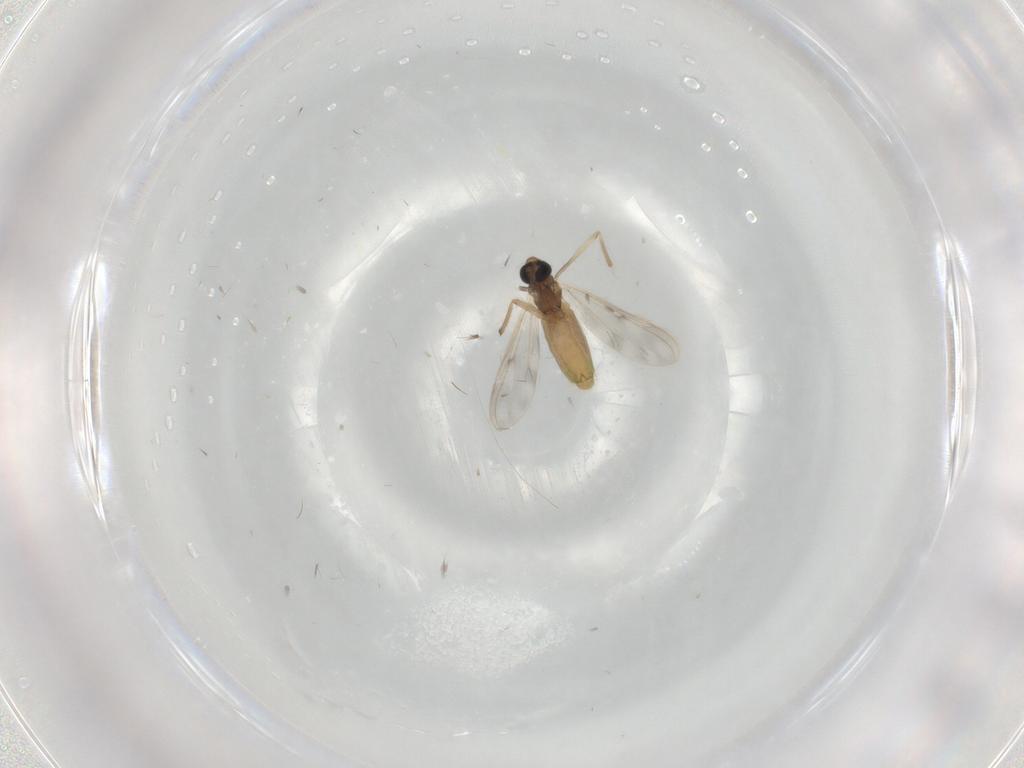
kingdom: Animalia
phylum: Arthropoda
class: Insecta
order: Diptera
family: Chironomidae
